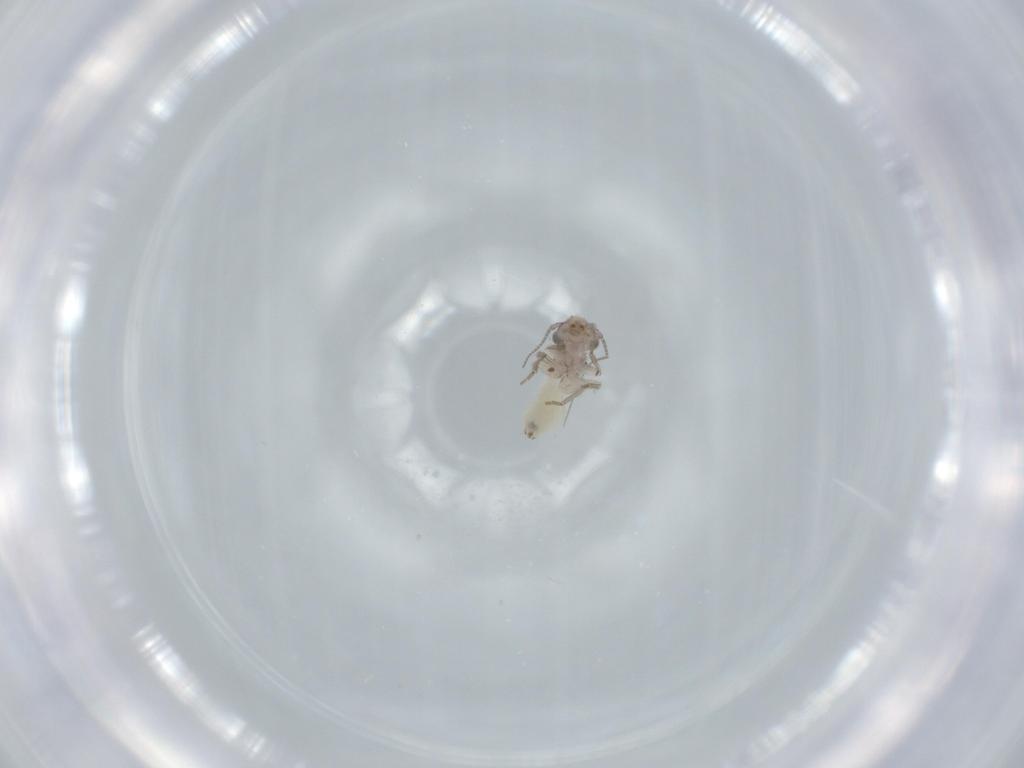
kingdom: Animalia
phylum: Arthropoda
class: Insecta
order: Psocodea
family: Lepidopsocidae
